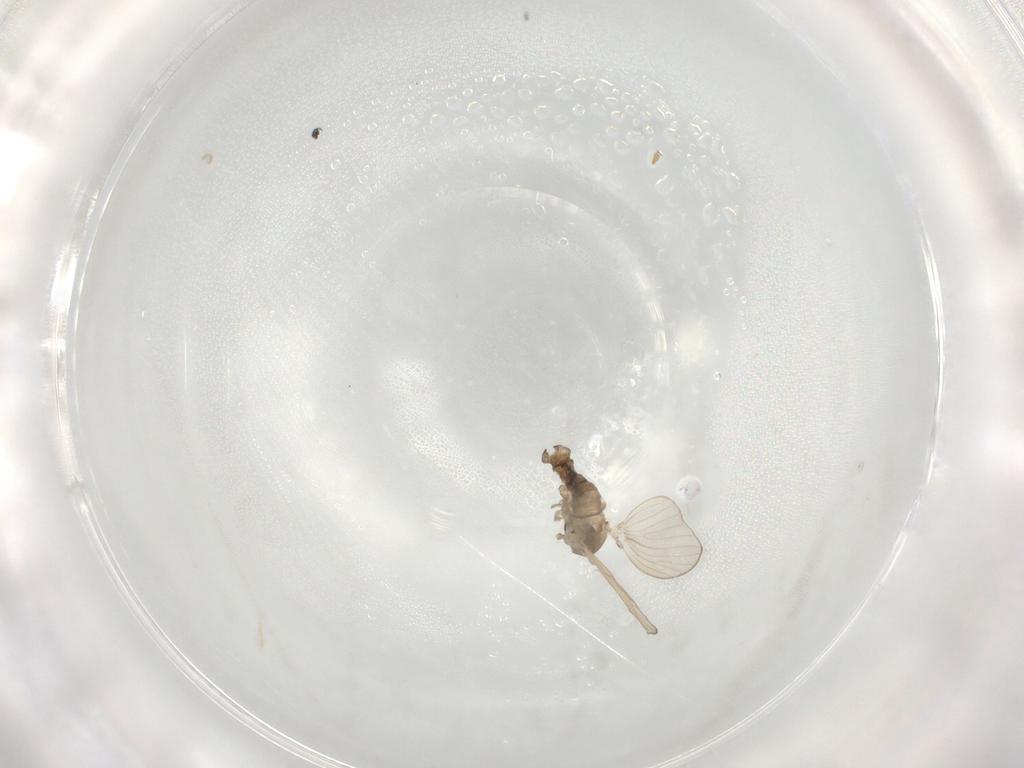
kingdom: Animalia
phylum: Arthropoda
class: Insecta
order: Diptera
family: Psychodidae
